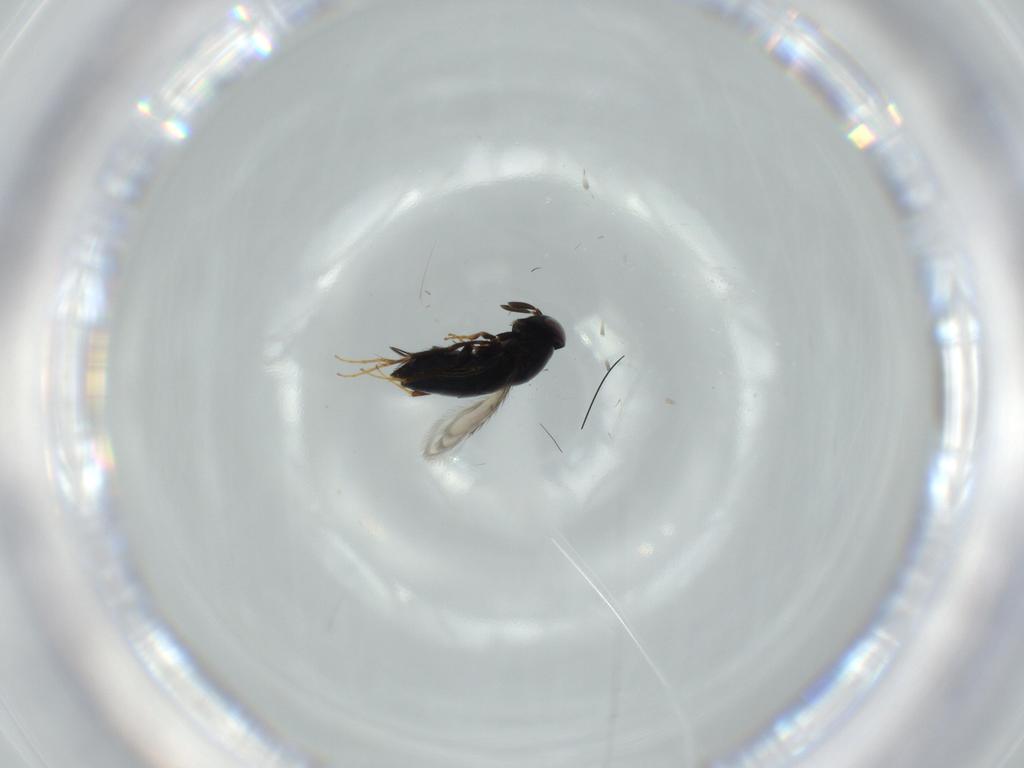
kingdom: Animalia
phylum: Arthropoda
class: Insecta
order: Hymenoptera
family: Signiphoridae
